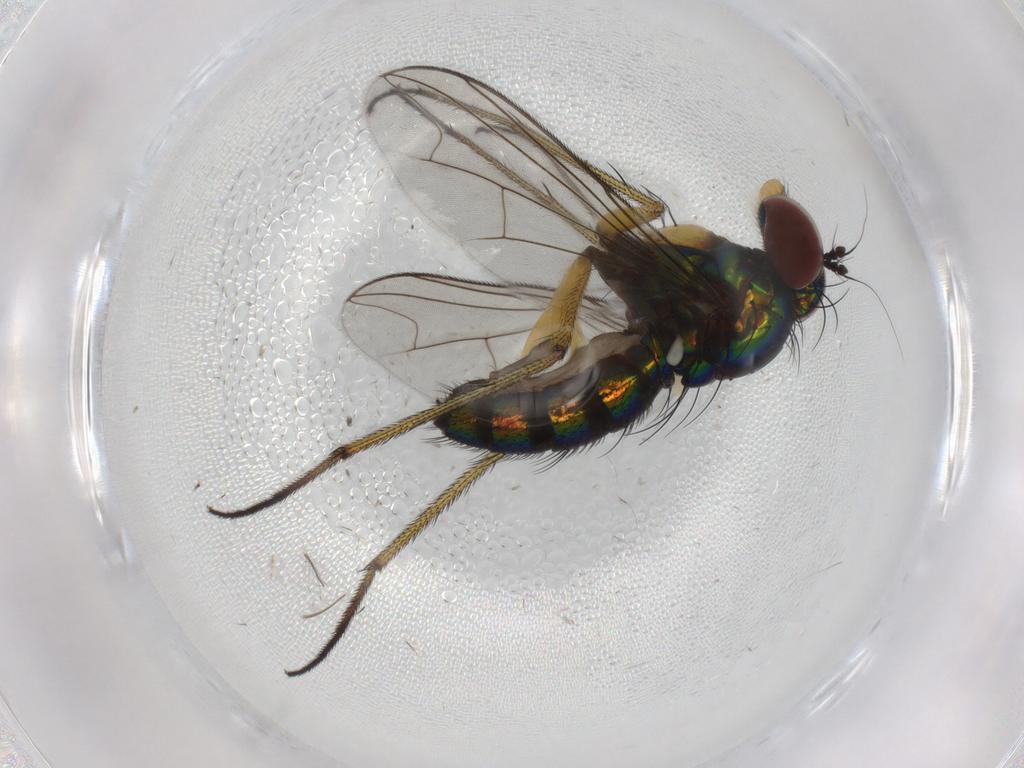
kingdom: Animalia
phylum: Arthropoda
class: Insecta
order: Diptera
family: Dolichopodidae
